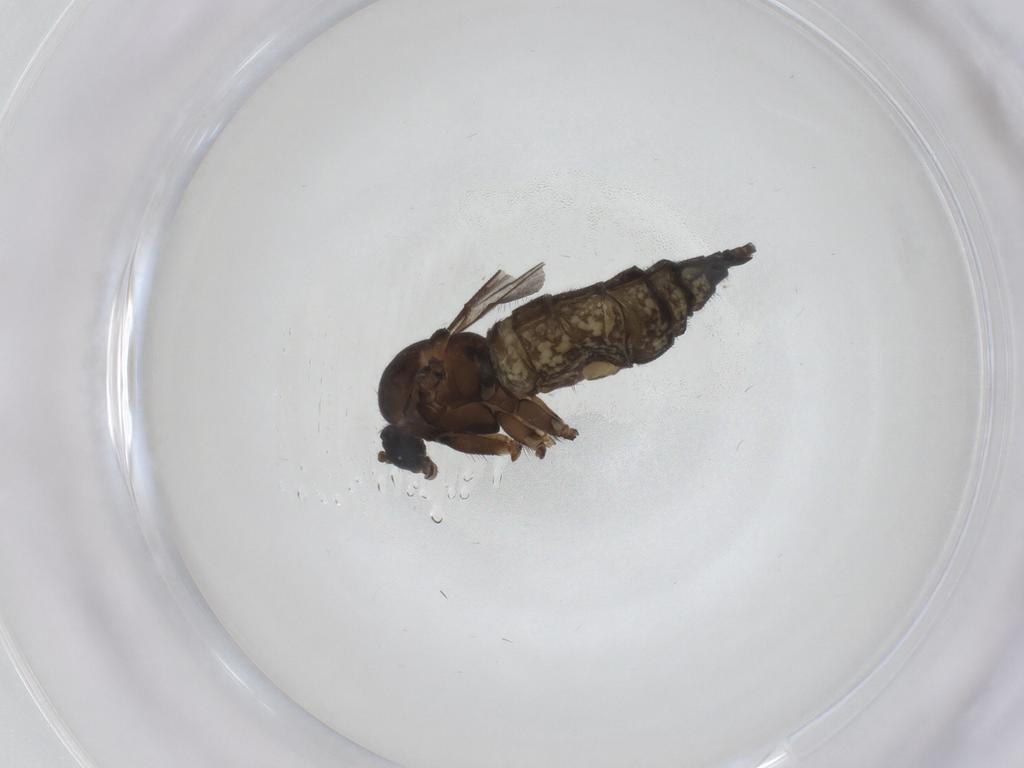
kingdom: Animalia
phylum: Arthropoda
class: Insecta
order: Diptera
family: Sciaridae
